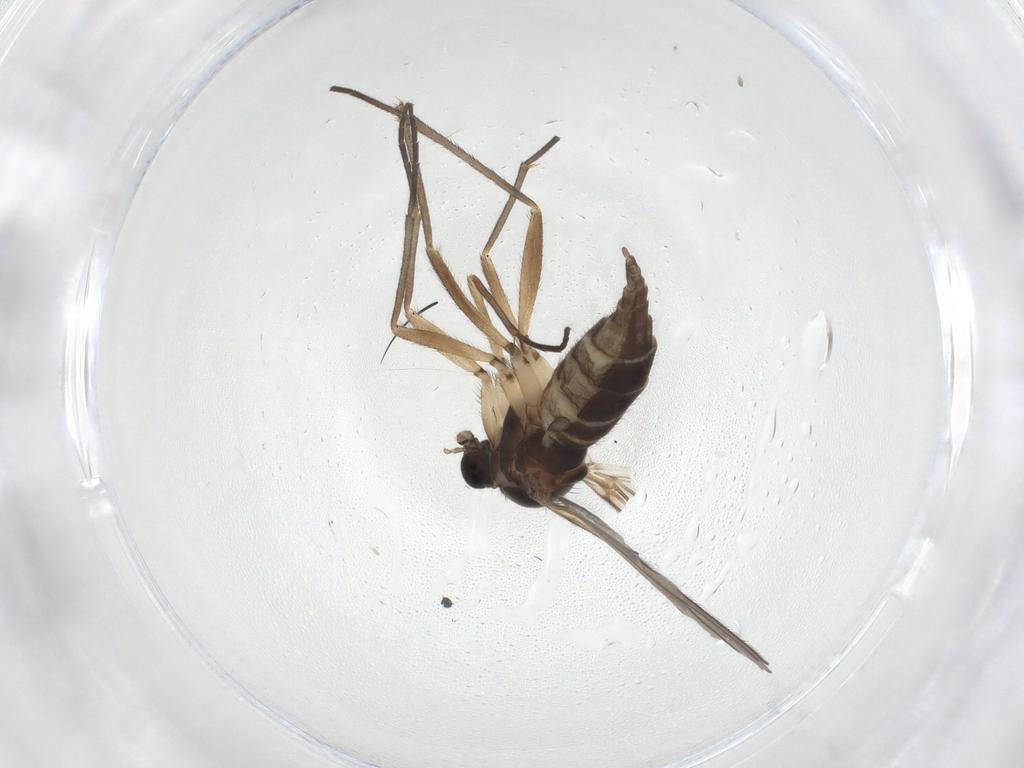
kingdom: Animalia
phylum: Arthropoda
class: Insecta
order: Diptera
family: Sciaridae
